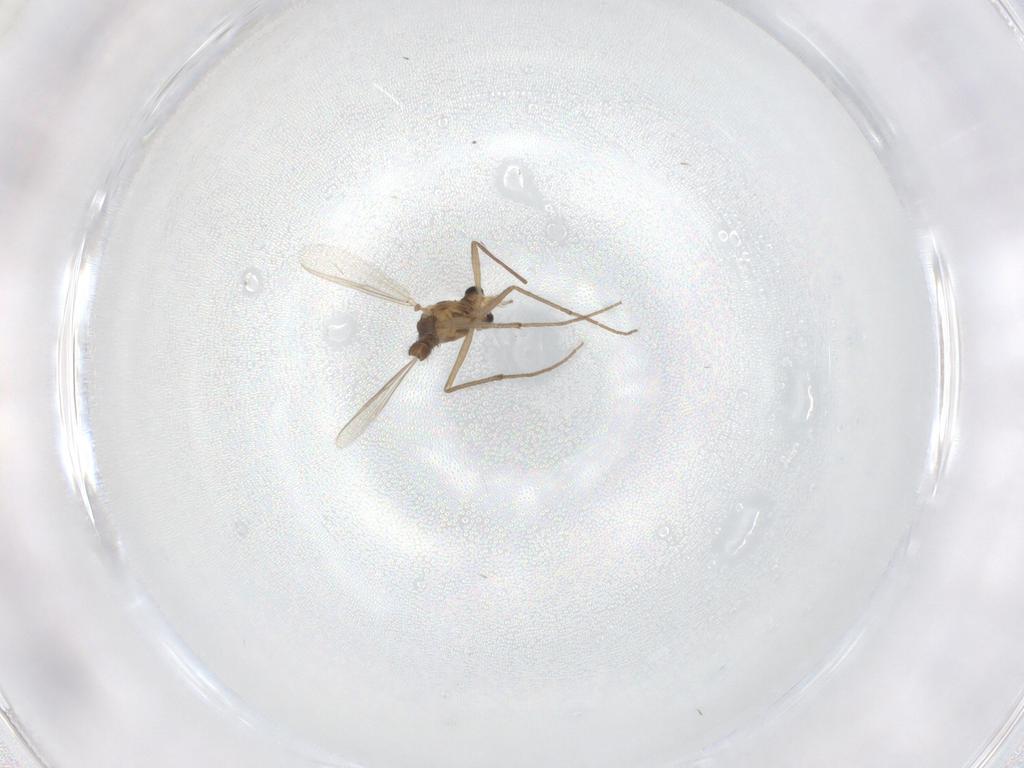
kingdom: Animalia
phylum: Arthropoda
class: Insecta
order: Diptera
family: Chironomidae
